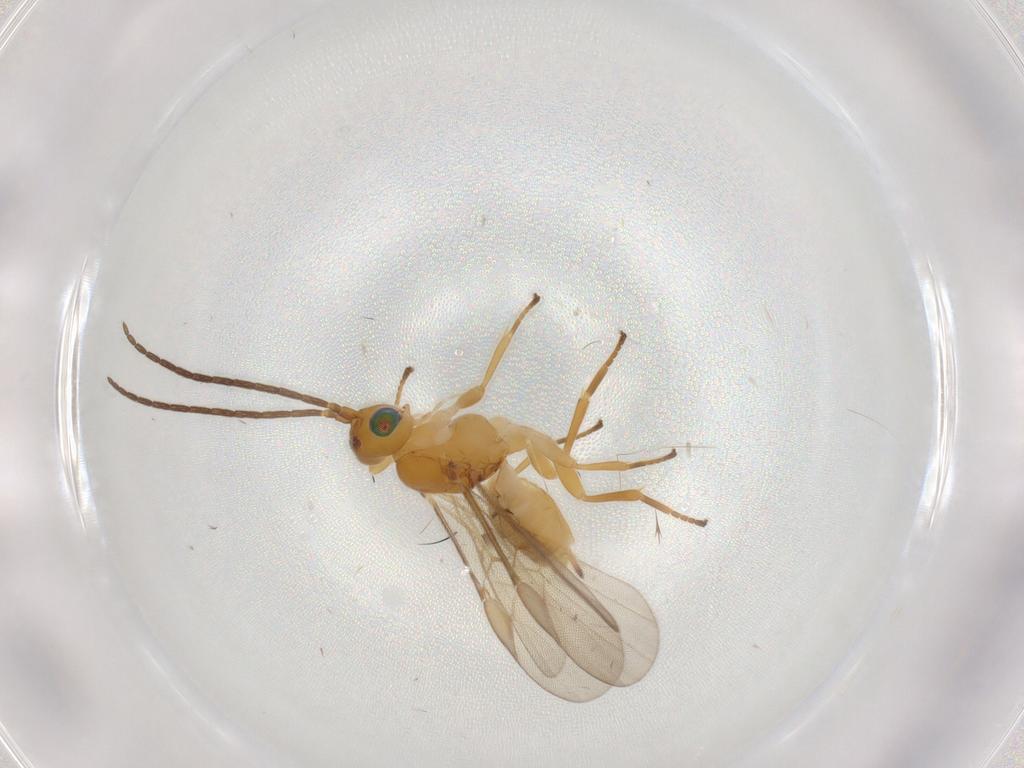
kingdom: Animalia
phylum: Arthropoda
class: Insecta
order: Hymenoptera
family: Braconidae
